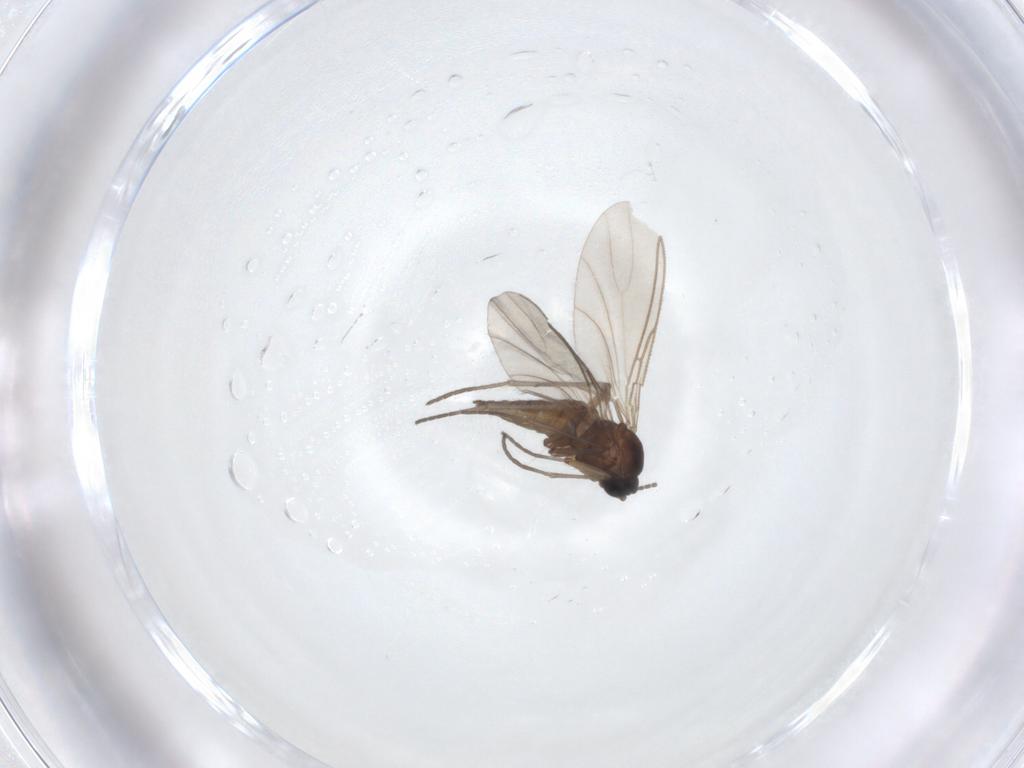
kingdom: Animalia
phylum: Arthropoda
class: Insecta
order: Diptera
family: Sciaridae
